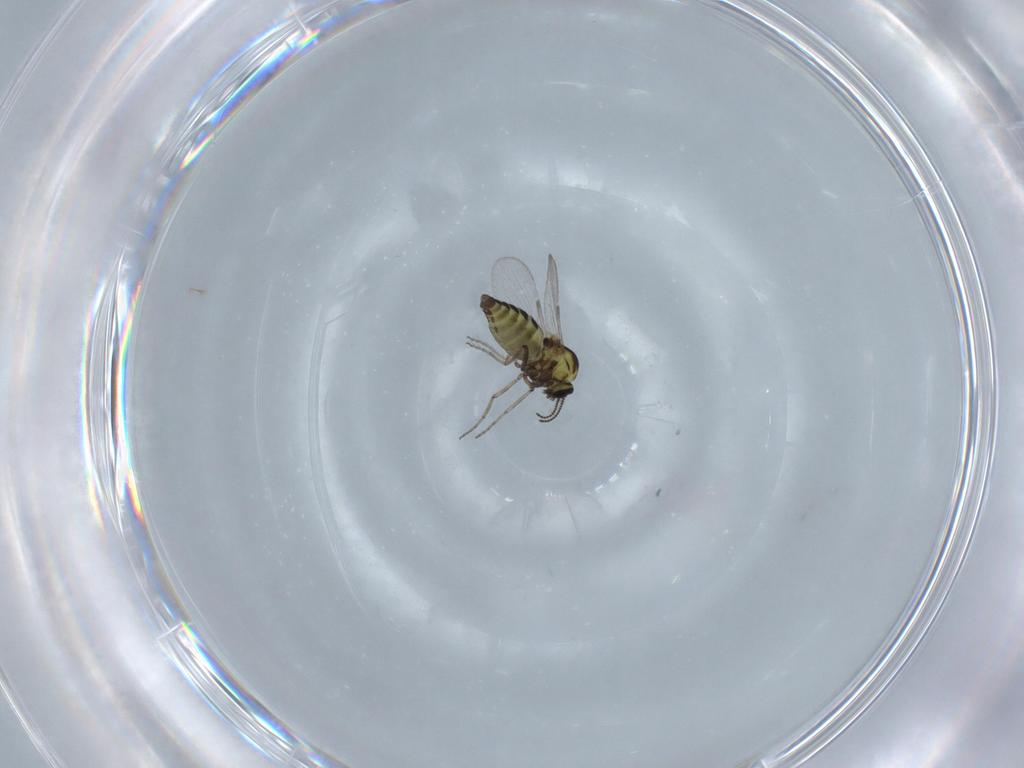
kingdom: Animalia
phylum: Arthropoda
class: Insecta
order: Diptera
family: Ceratopogonidae
